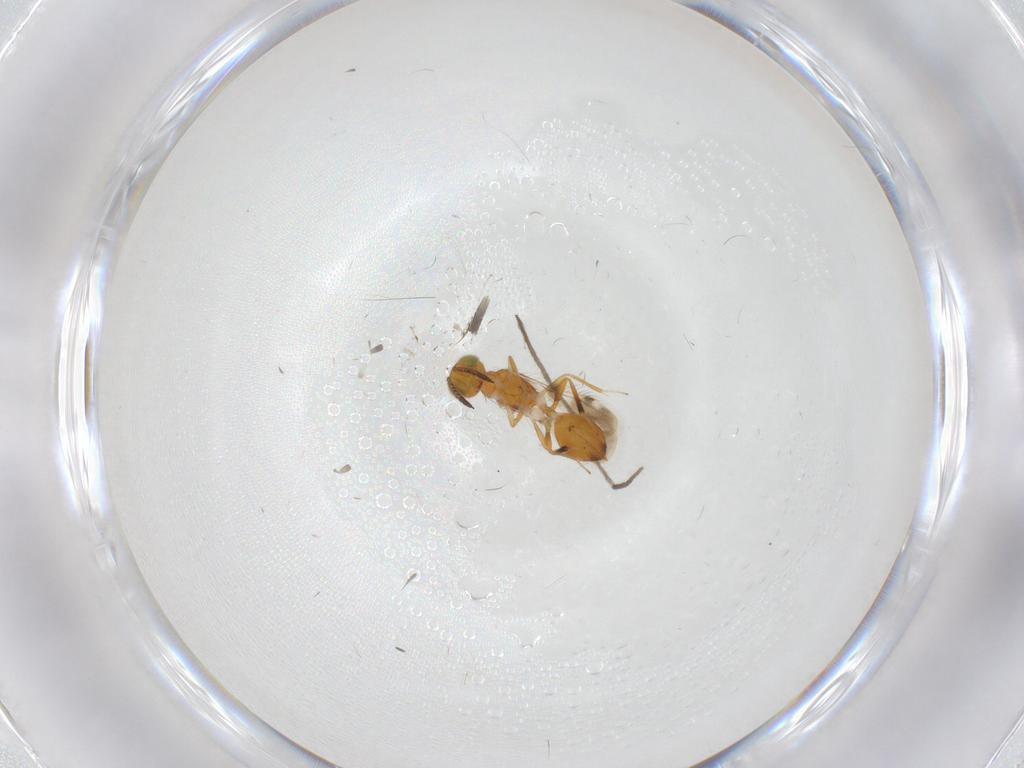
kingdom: Animalia
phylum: Arthropoda
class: Insecta
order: Hymenoptera
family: Pteromalidae
